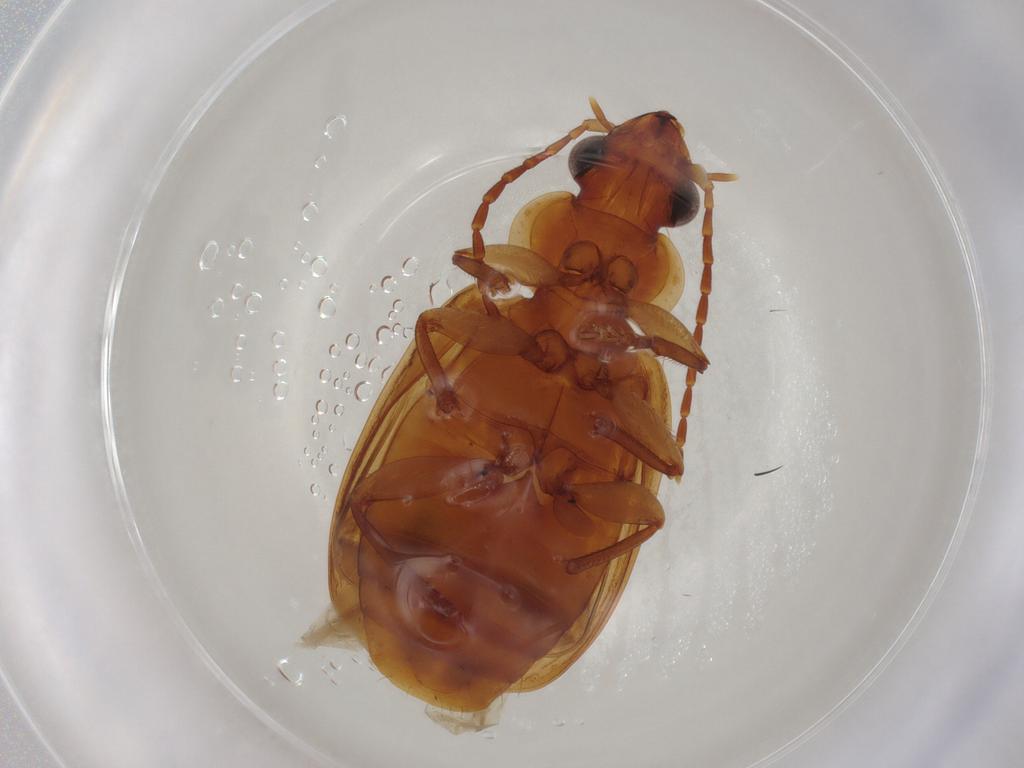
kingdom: Animalia
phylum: Arthropoda
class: Insecta
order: Coleoptera
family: Carabidae
